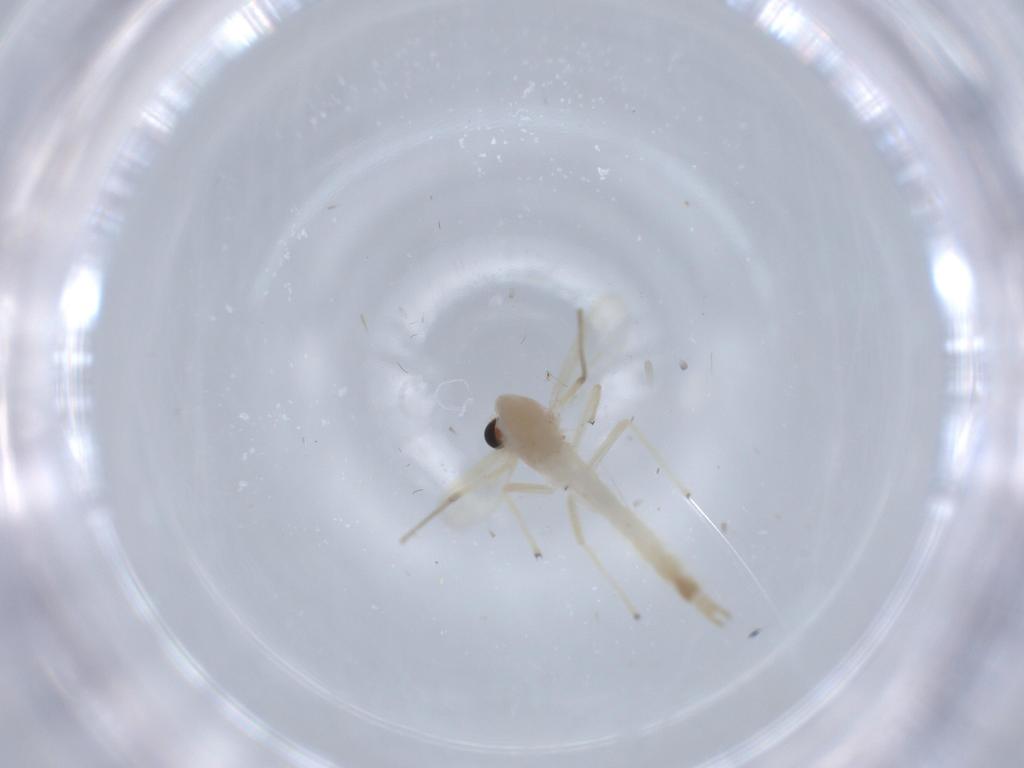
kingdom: Animalia
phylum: Arthropoda
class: Insecta
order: Diptera
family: Chironomidae
